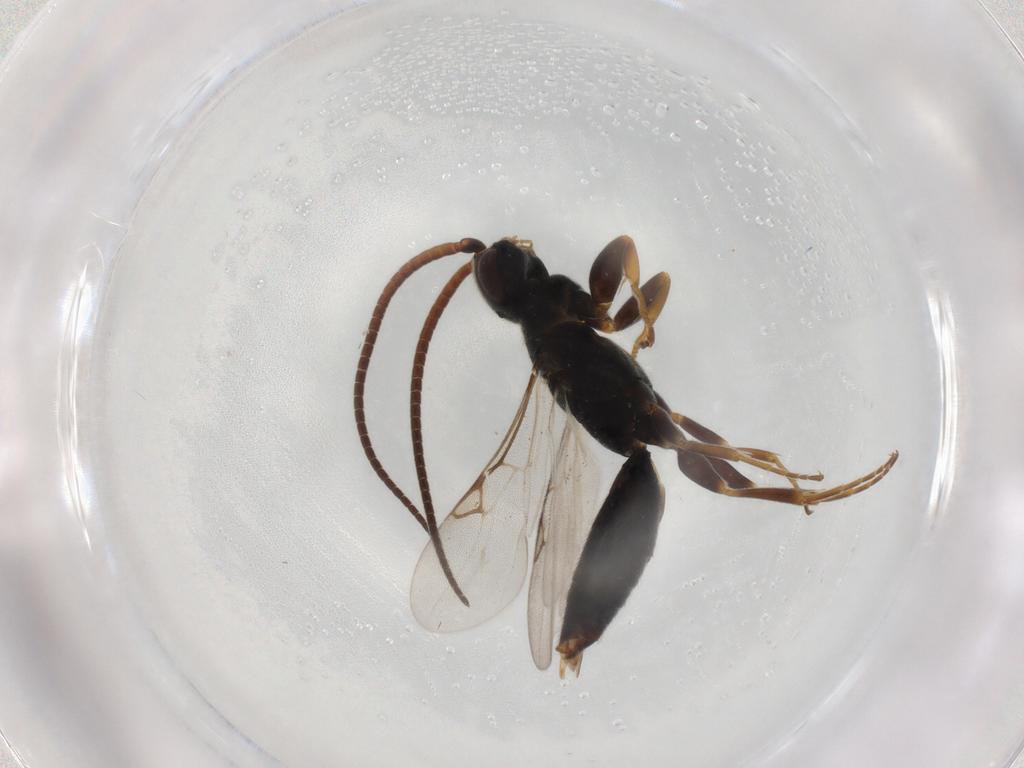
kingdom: Animalia
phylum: Arthropoda
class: Insecta
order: Hymenoptera
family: Sclerogibbidae
